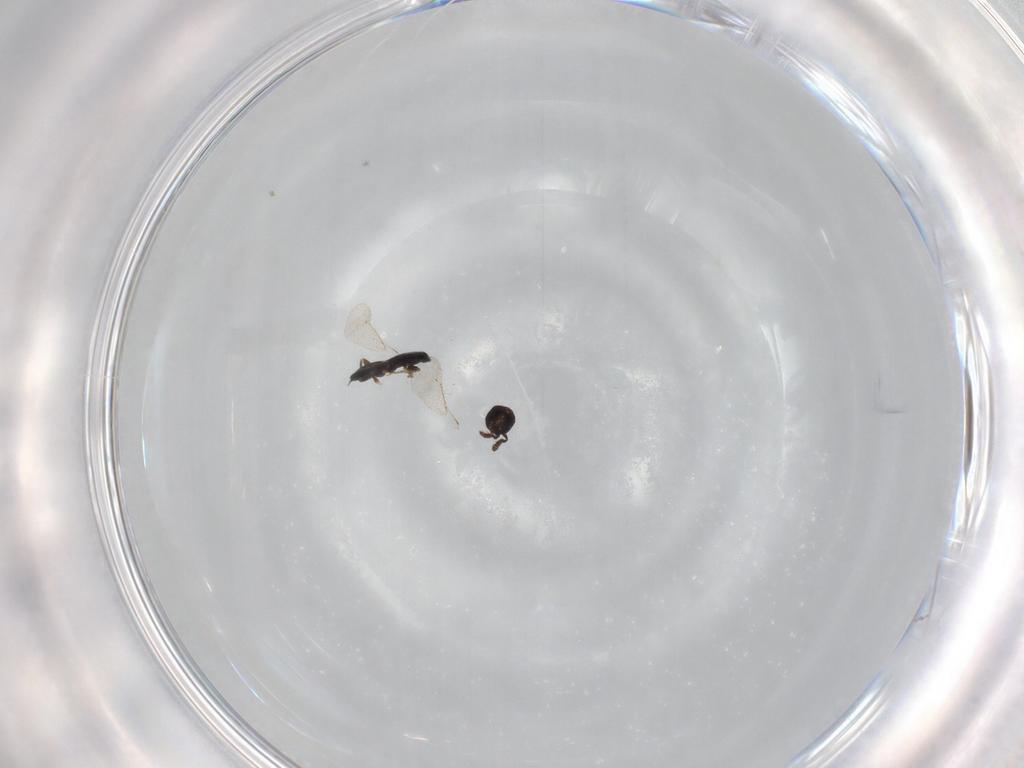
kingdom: Animalia
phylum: Arthropoda
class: Insecta
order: Hymenoptera
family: Eulophidae
